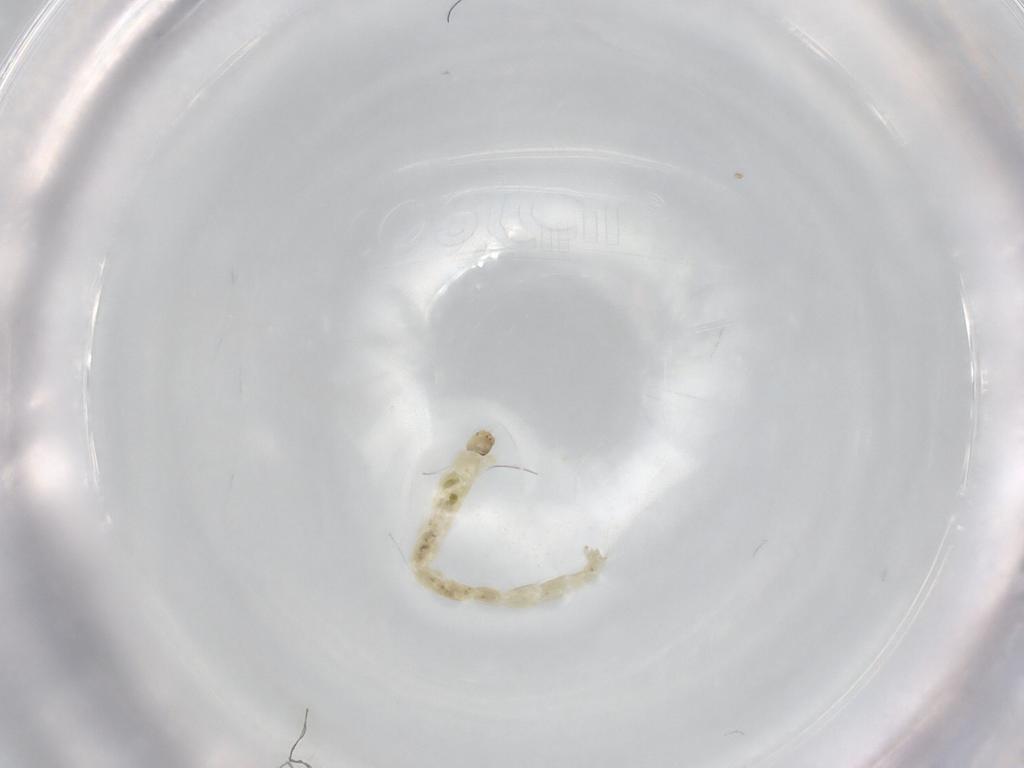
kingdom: Animalia
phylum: Arthropoda
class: Insecta
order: Diptera
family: Chironomidae
